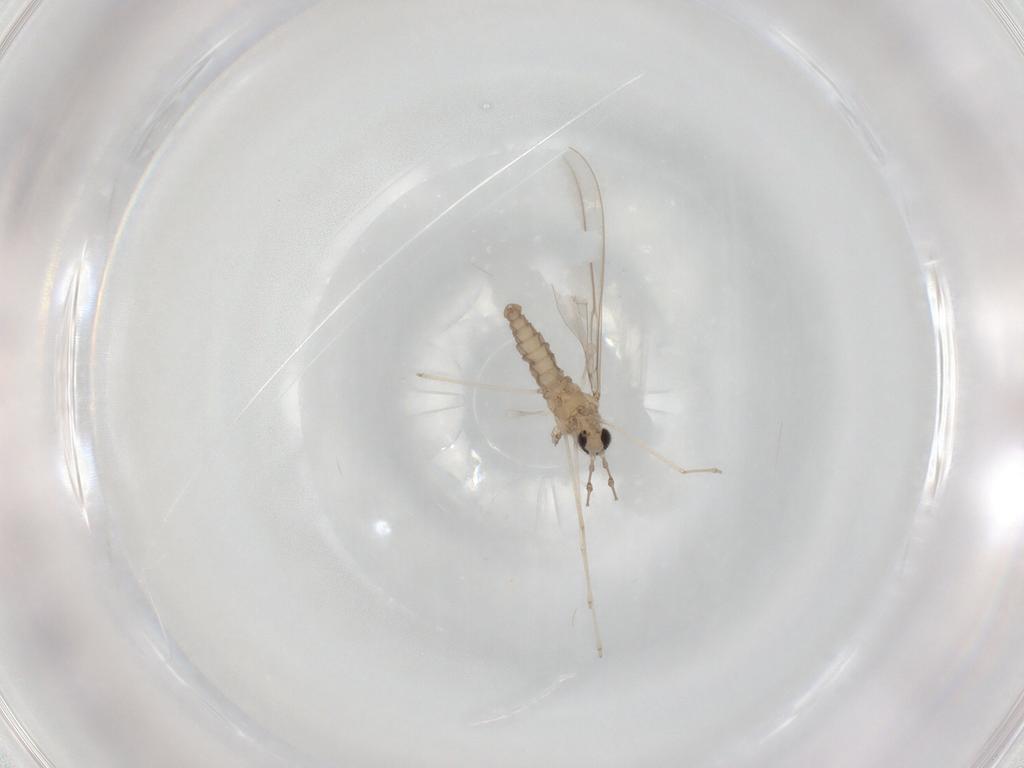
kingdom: Animalia
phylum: Arthropoda
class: Insecta
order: Diptera
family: Cecidomyiidae
